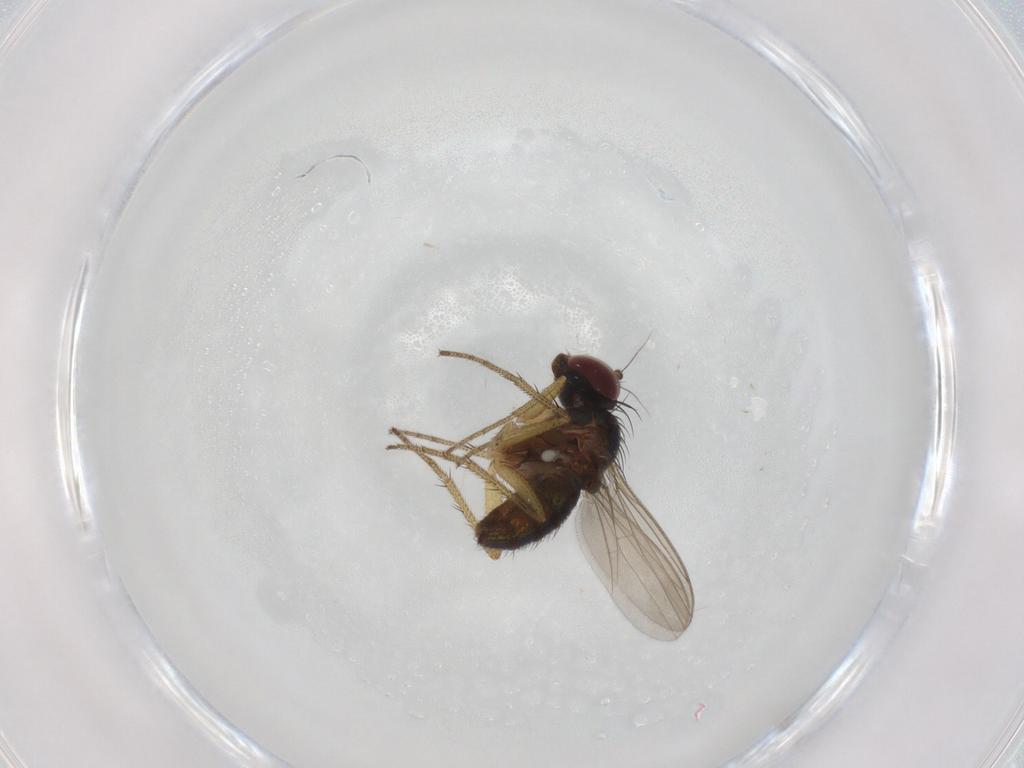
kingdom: Animalia
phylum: Arthropoda
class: Insecta
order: Diptera
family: Dolichopodidae
